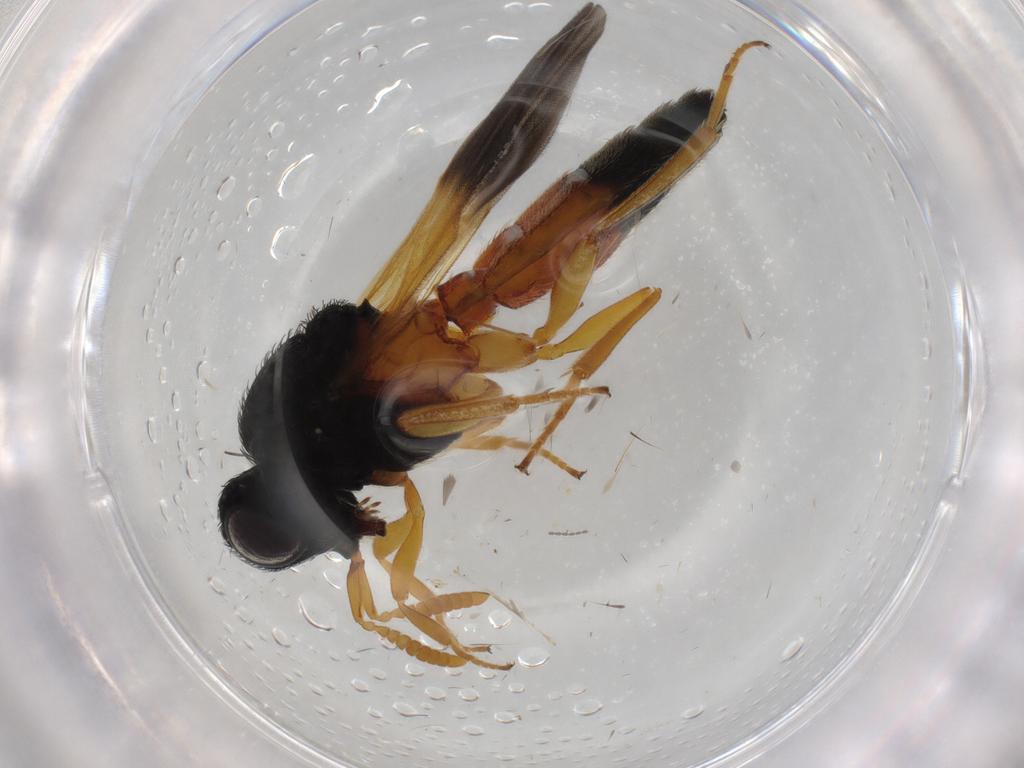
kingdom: Animalia
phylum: Arthropoda
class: Insecta
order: Hymenoptera
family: Scelionidae
